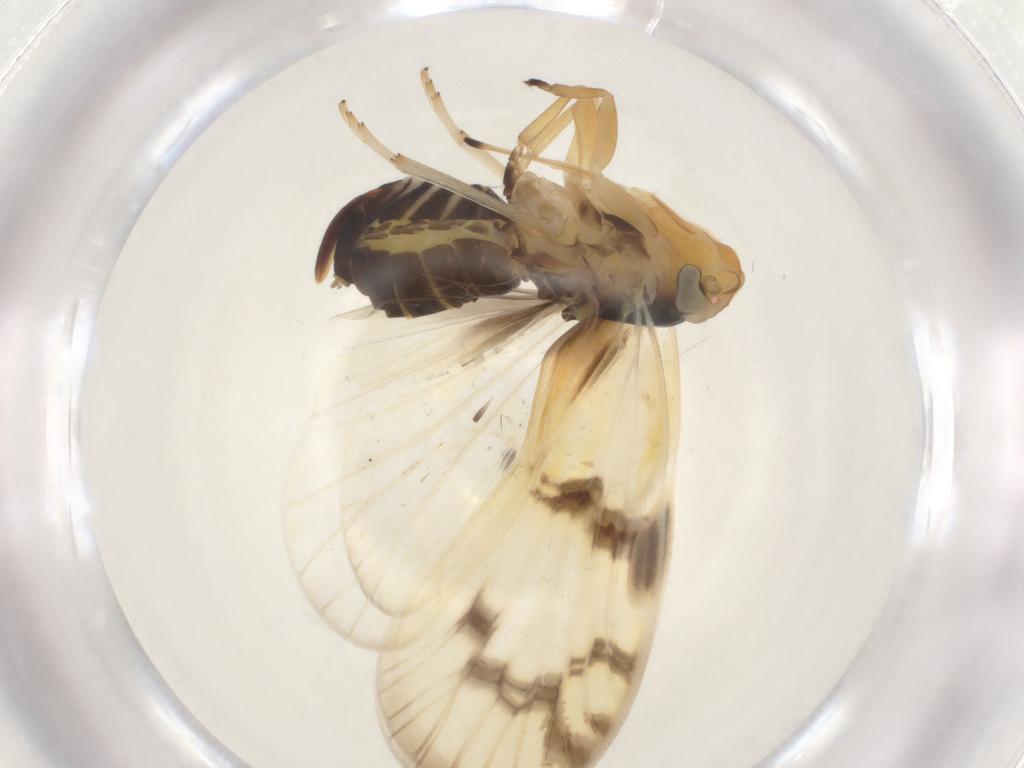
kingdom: Animalia
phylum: Arthropoda
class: Insecta
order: Hemiptera
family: Cixiidae
